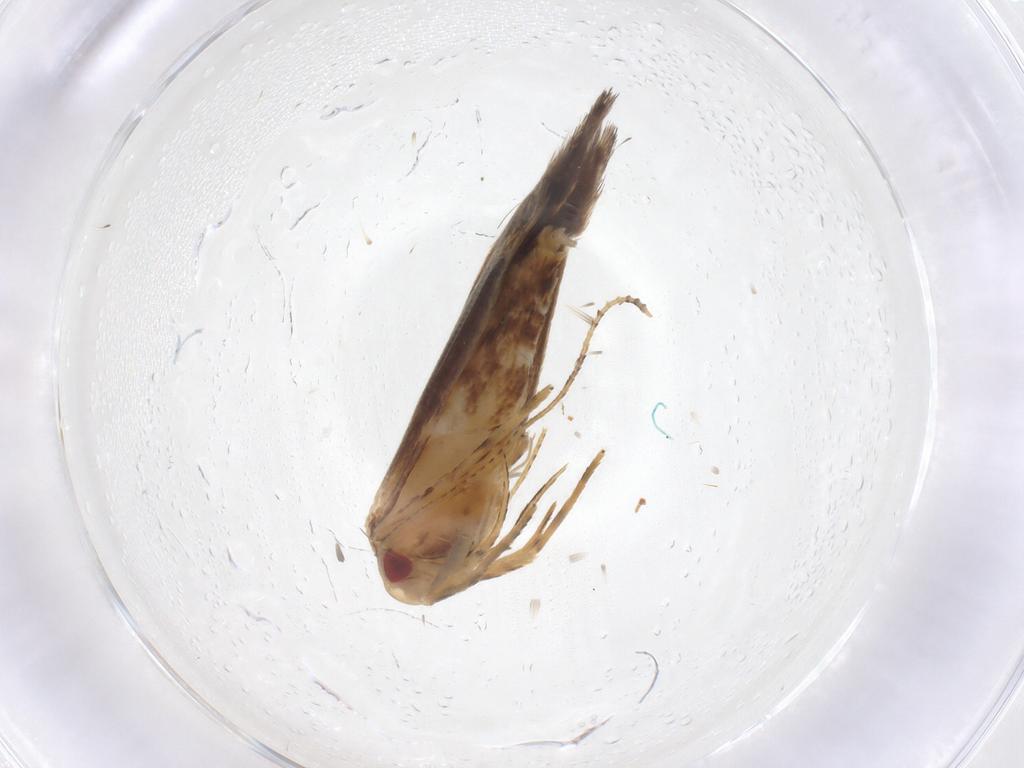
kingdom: Animalia
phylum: Arthropoda
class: Insecta
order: Lepidoptera
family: Cosmopterigidae
